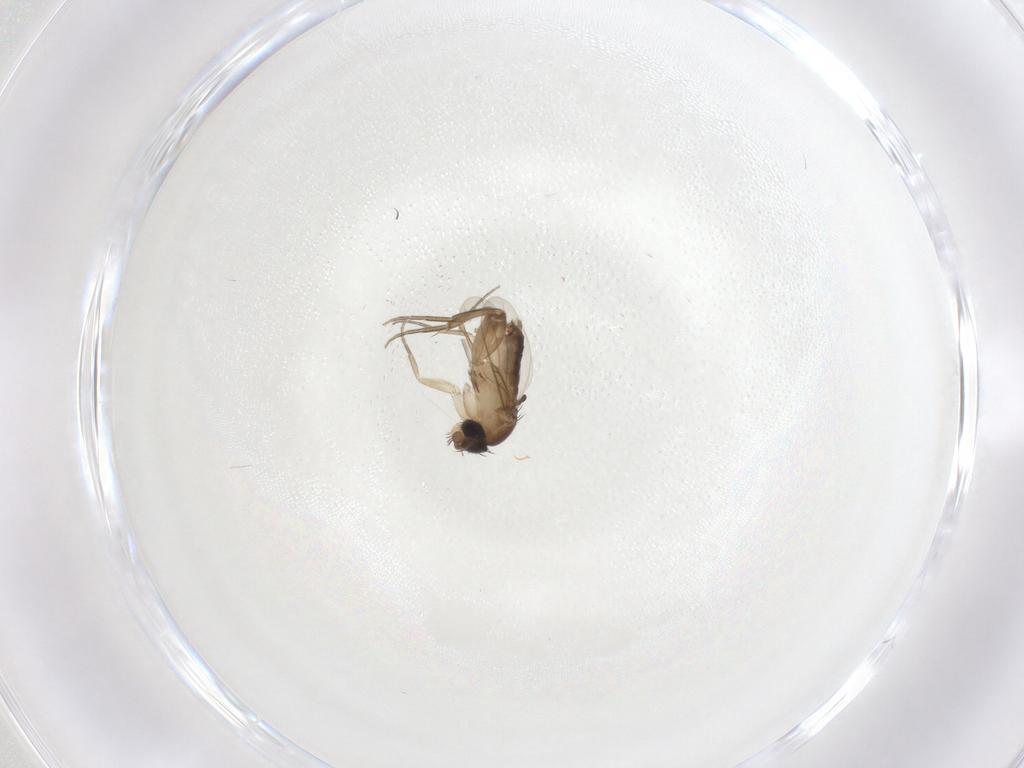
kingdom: Animalia
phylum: Arthropoda
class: Insecta
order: Diptera
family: Phoridae
